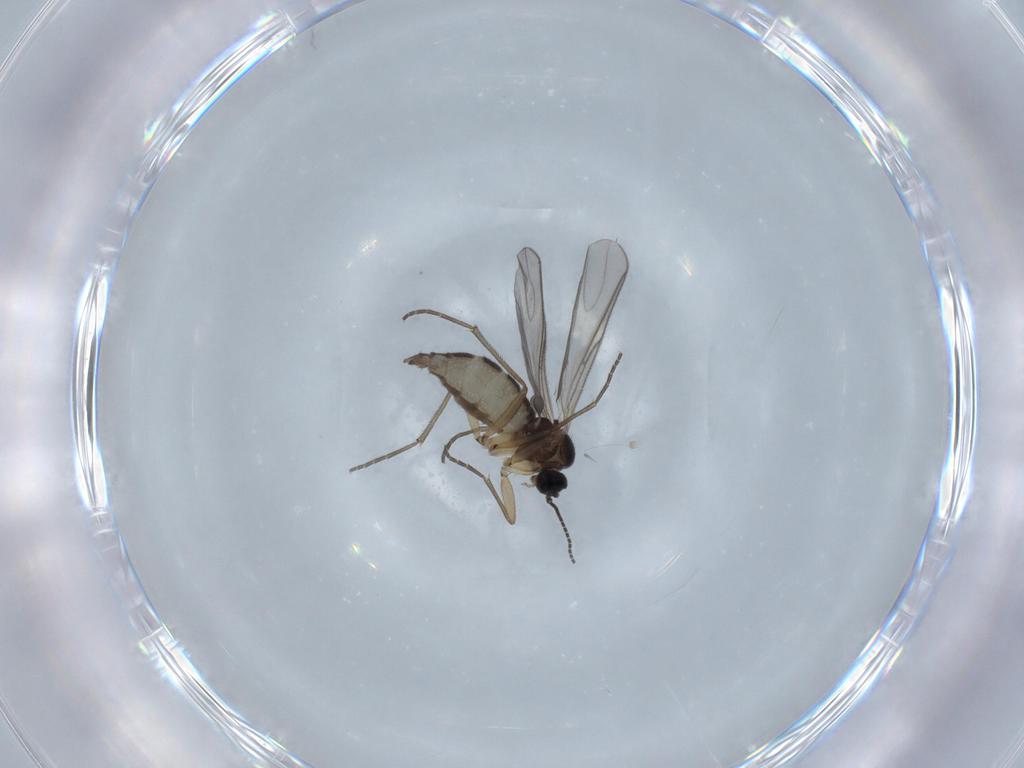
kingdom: Animalia
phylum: Arthropoda
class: Insecta
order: Diptera
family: Sciaridae
